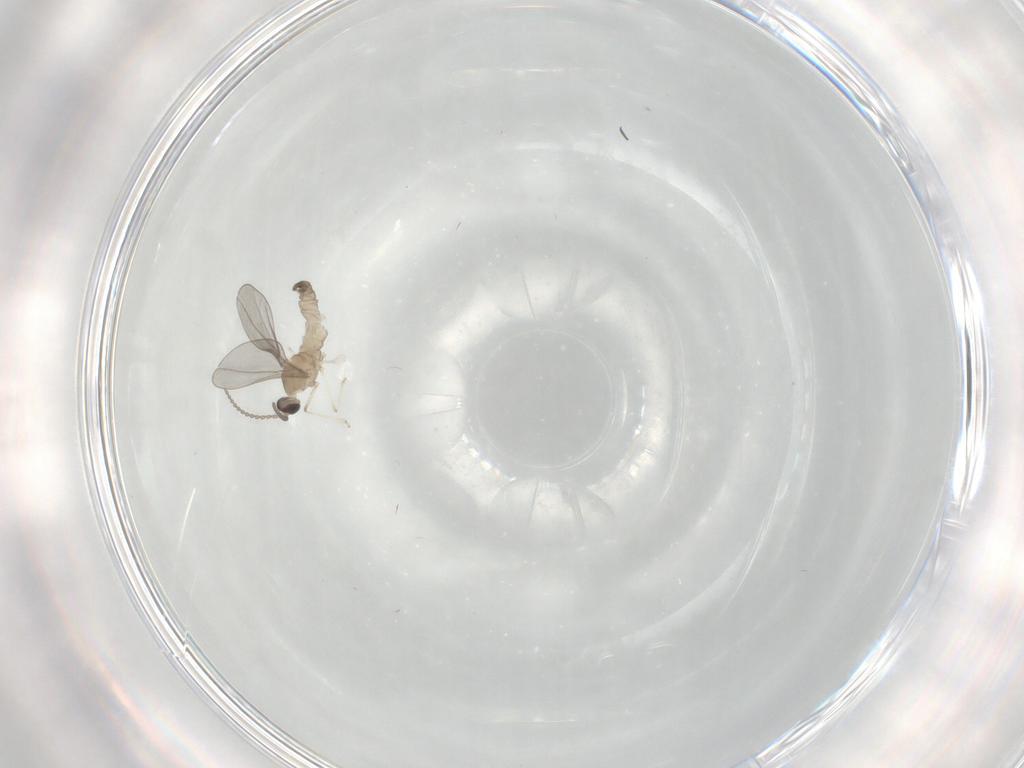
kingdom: Animalia
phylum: Arthropoda
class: Insecta
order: Diptera
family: Cecidomyiidae
